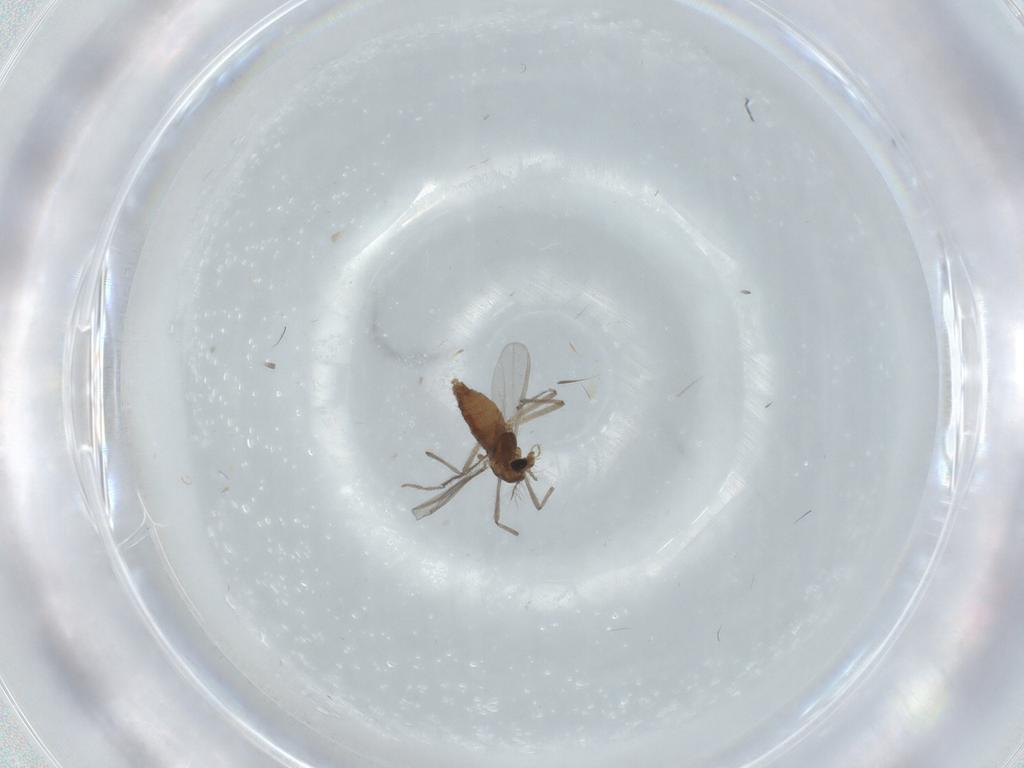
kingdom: Animalia
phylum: Arthropoda
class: Insecta
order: Diptera
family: Chironomidae
